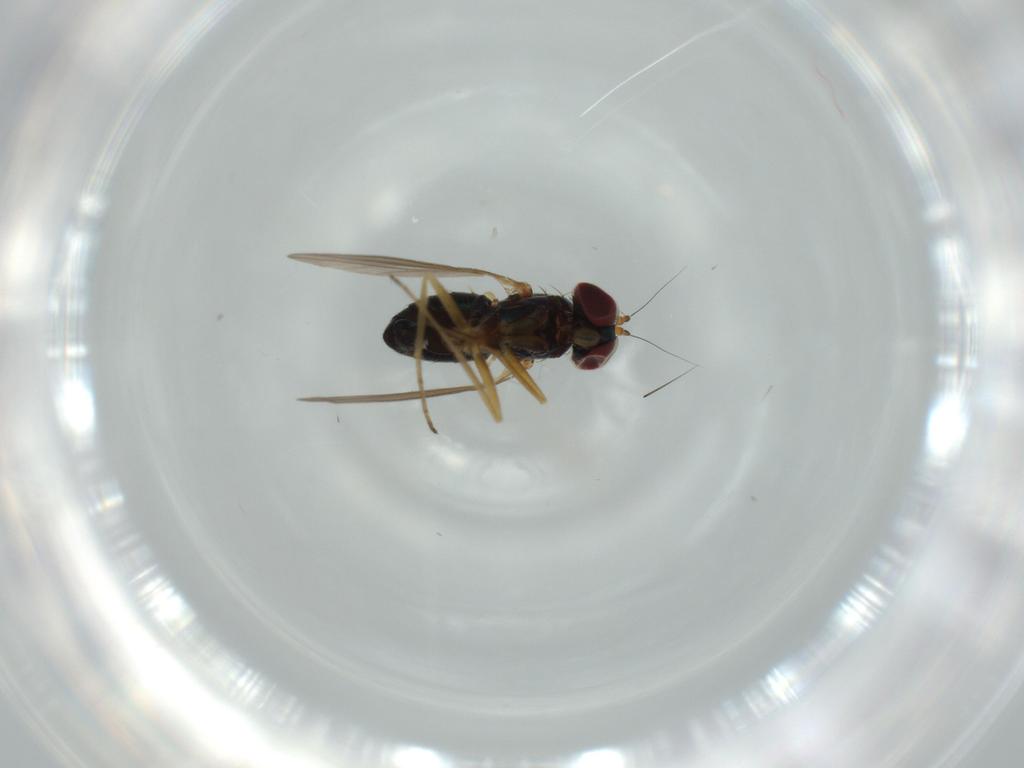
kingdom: Animalia
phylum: Arthropoda
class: Insecta
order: Diptera
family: Dolichopodidae
